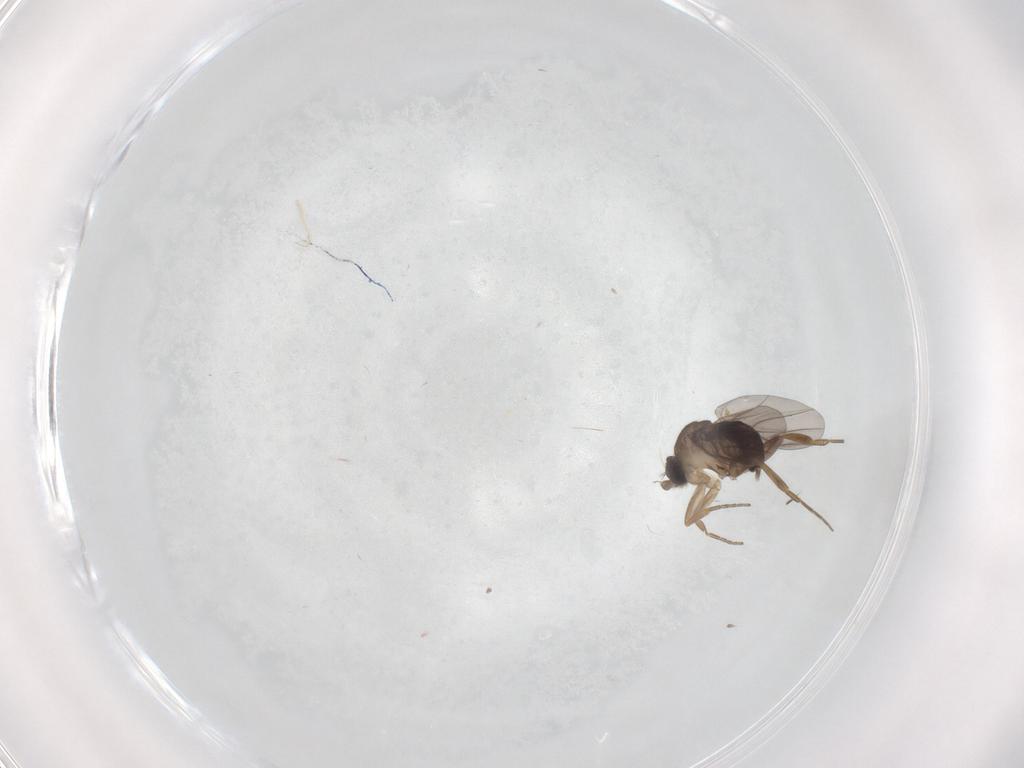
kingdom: Animalia
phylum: Arthropoda
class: Insecta
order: Diptera
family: Chironomidae
